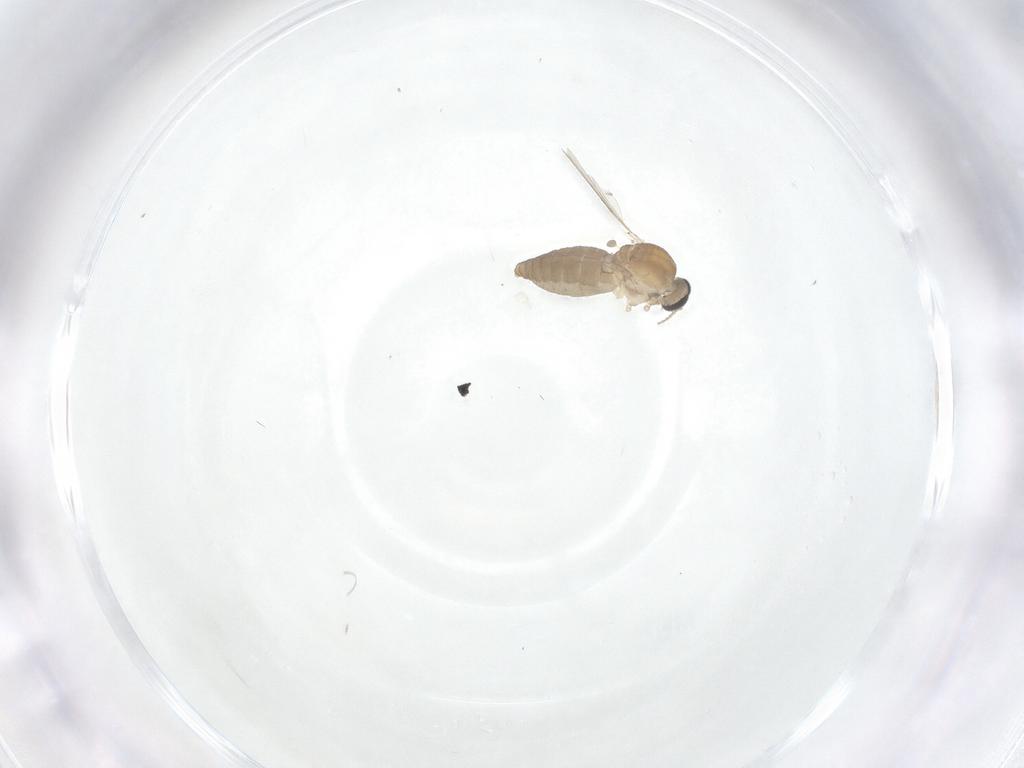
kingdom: Animalia
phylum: Arthropoda
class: Insecta
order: Diptera
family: Ceratopogonidae
